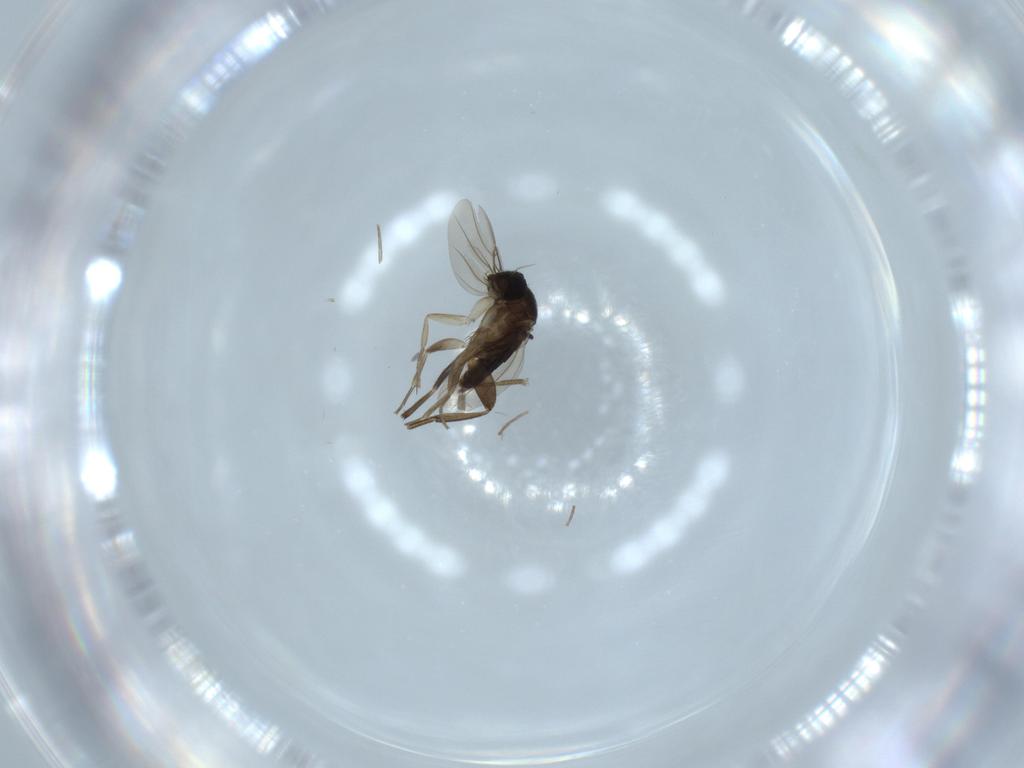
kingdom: Animalia
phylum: Arthropoda
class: Insecta
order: Diptera
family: Phoridae
